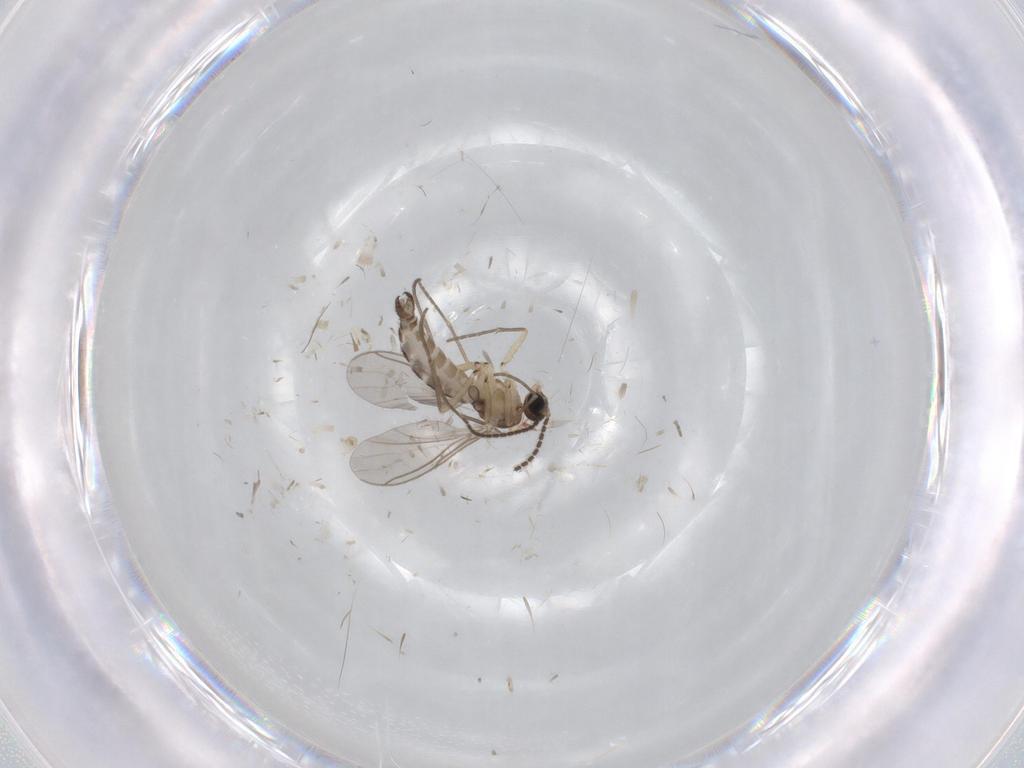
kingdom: Animalia
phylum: Arthropoda
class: Insecta
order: Diptera
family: Sciaridae
